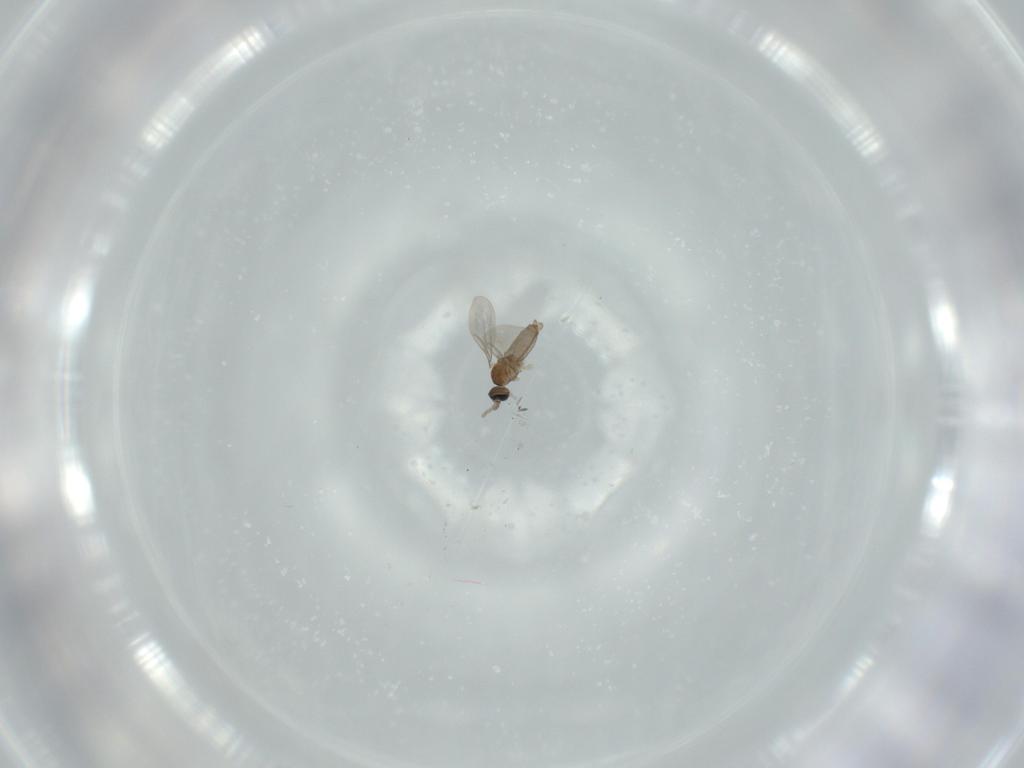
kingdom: Animalia
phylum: Arthropoda
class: Insecta
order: Diptera
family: Cecidomyiidae
